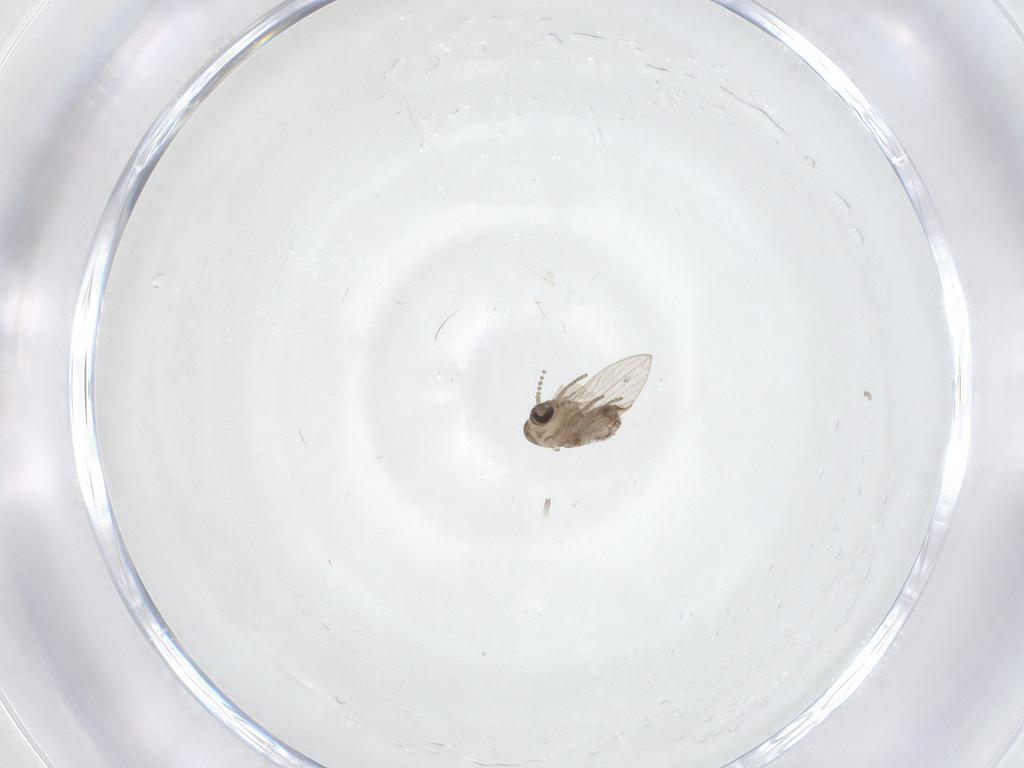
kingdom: Animalia
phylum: Arthropoda
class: Insecta
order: Diptera
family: Psychodidae
